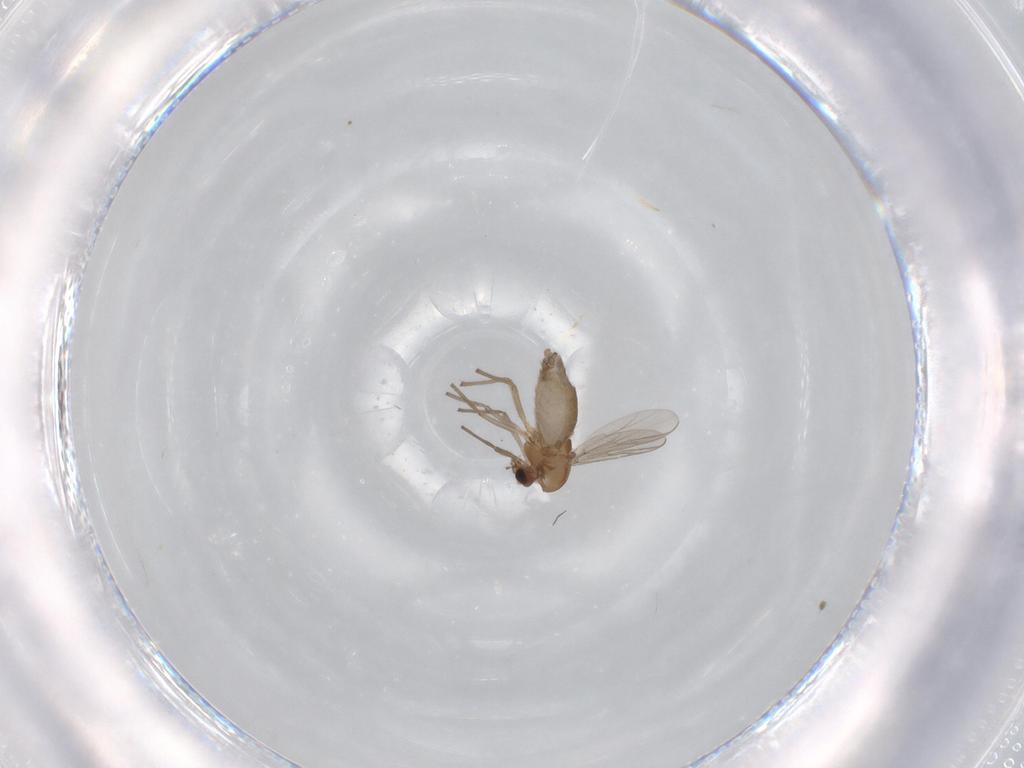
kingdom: Animalia
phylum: Arthropoda
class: Insecta
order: Diptera
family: Chironomidae
